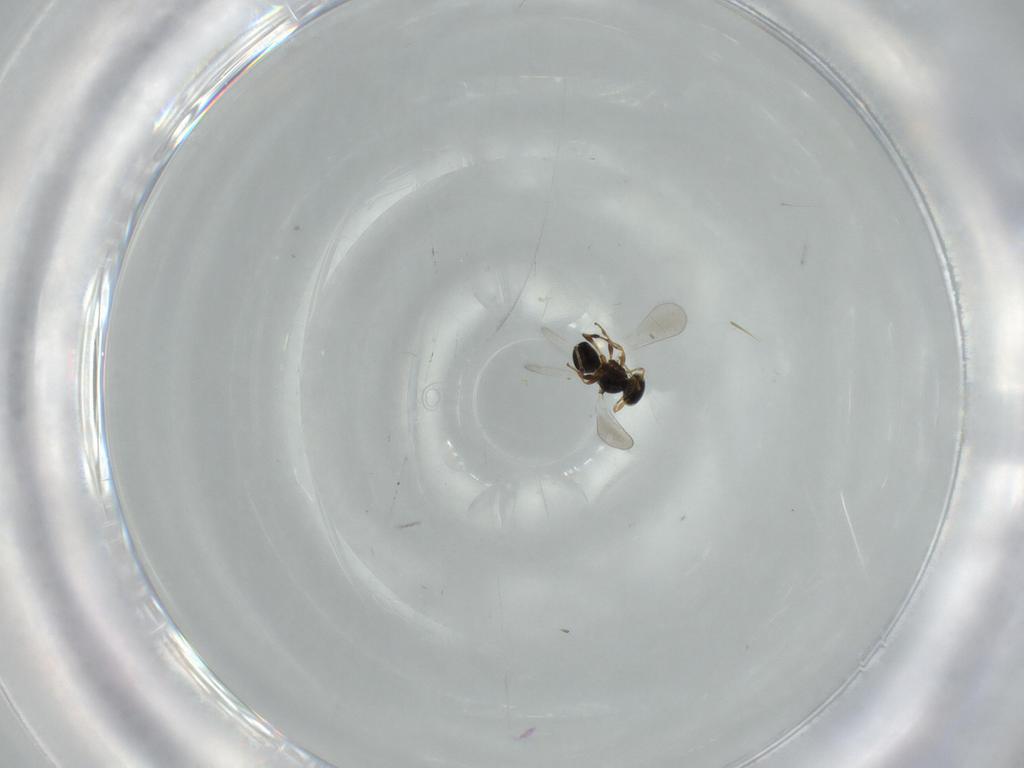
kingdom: Animalia
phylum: Arthropoda
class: Insecta
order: Hymenoptera
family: Platygastridae
